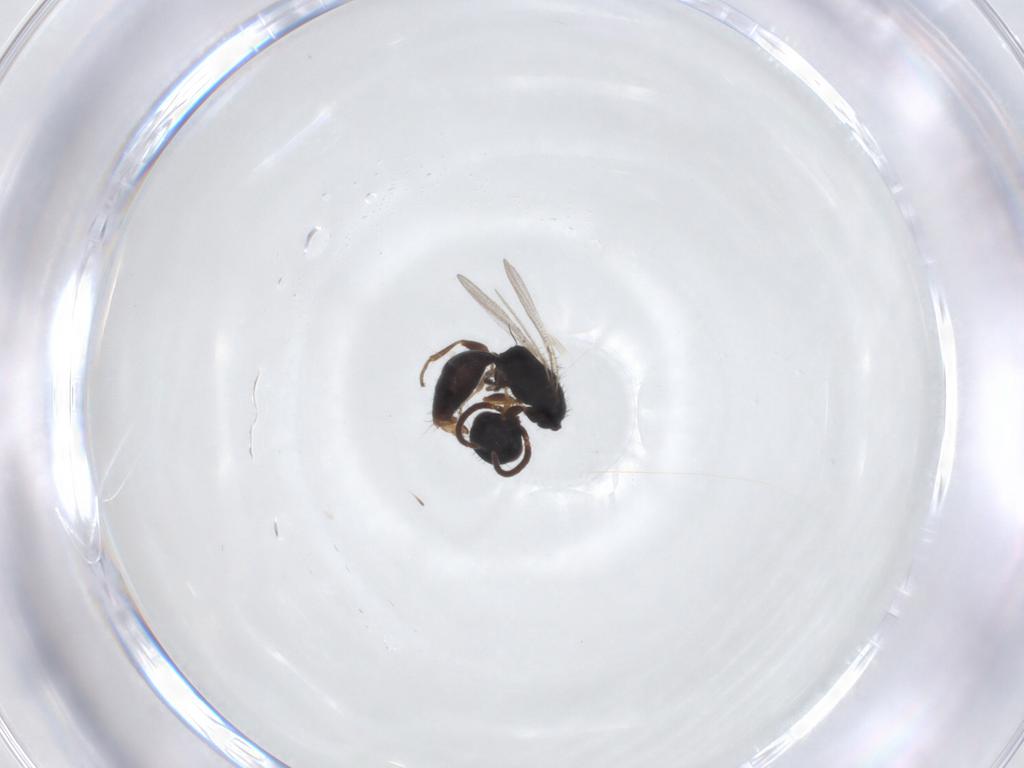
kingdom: Animalia
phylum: Arthropoda
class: Insecta
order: Hymenoptera
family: Bethylidae
